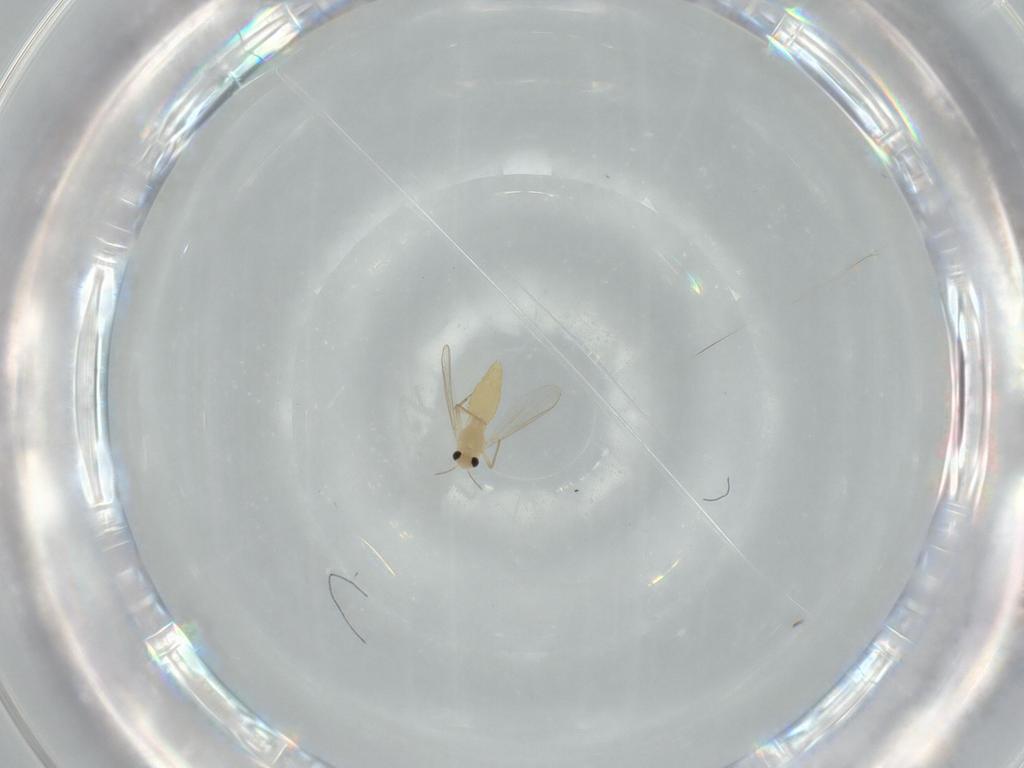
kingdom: Animalia
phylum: Arthropoda
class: Insecta
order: Diptera
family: Chironomidae
